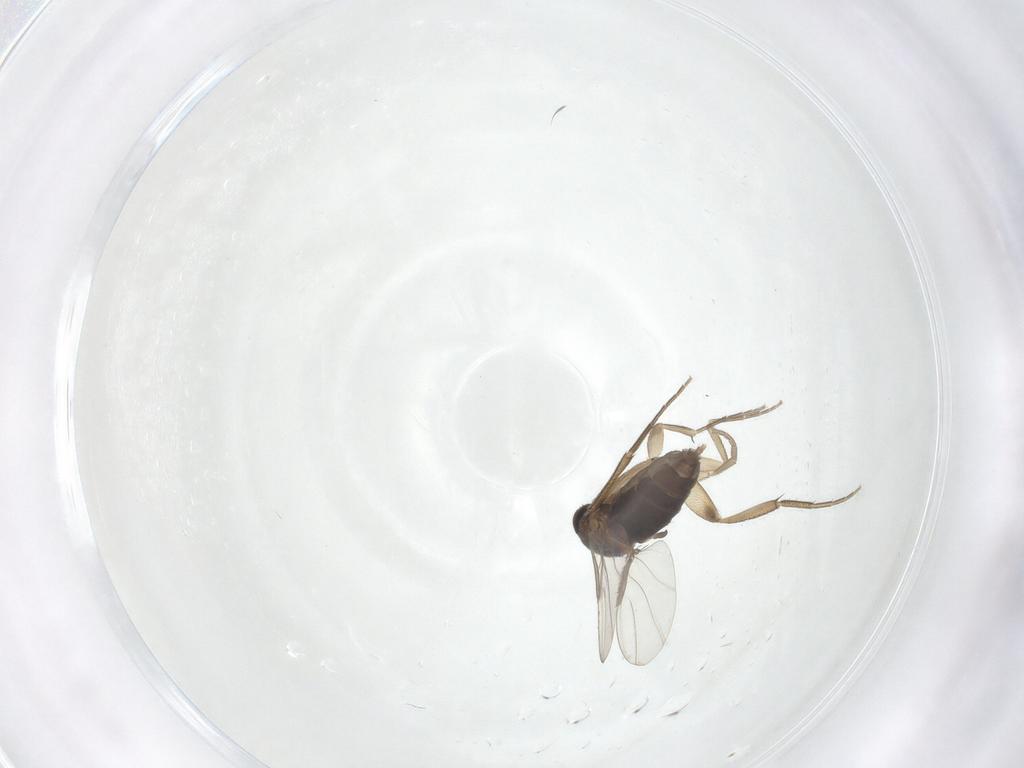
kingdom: Animalia
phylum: Arthropoda
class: Insecta
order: Diptera
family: Phoridae
